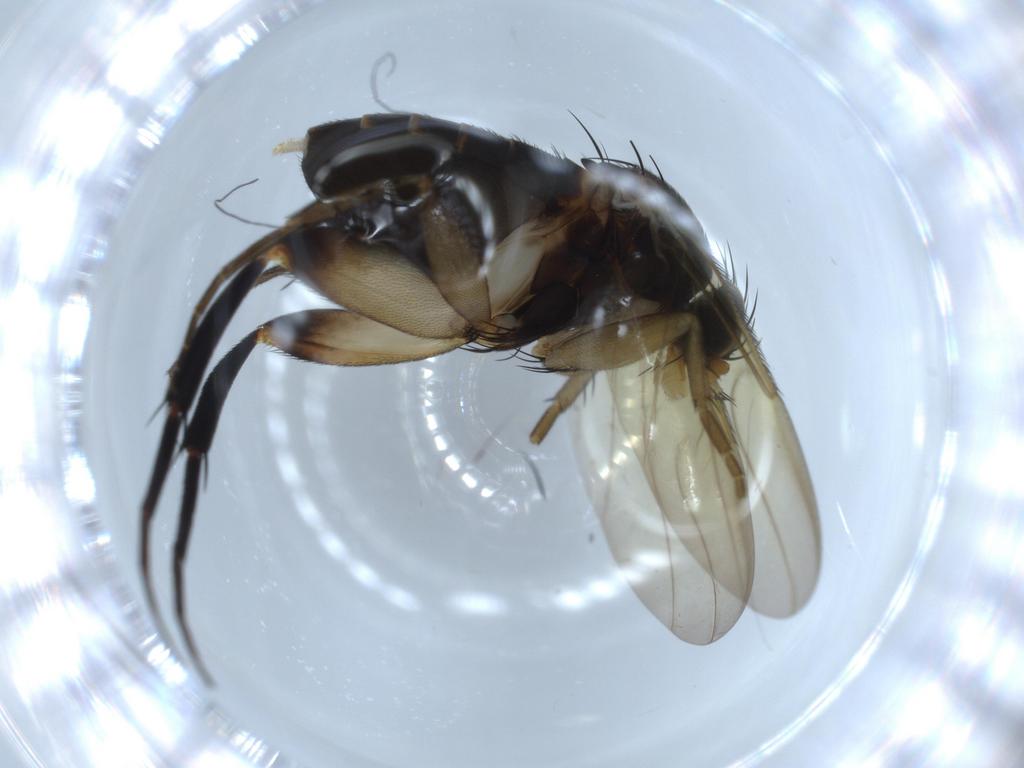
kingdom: Animalia
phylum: Arthropoda
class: Insecta
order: Diptera
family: Phoridae
